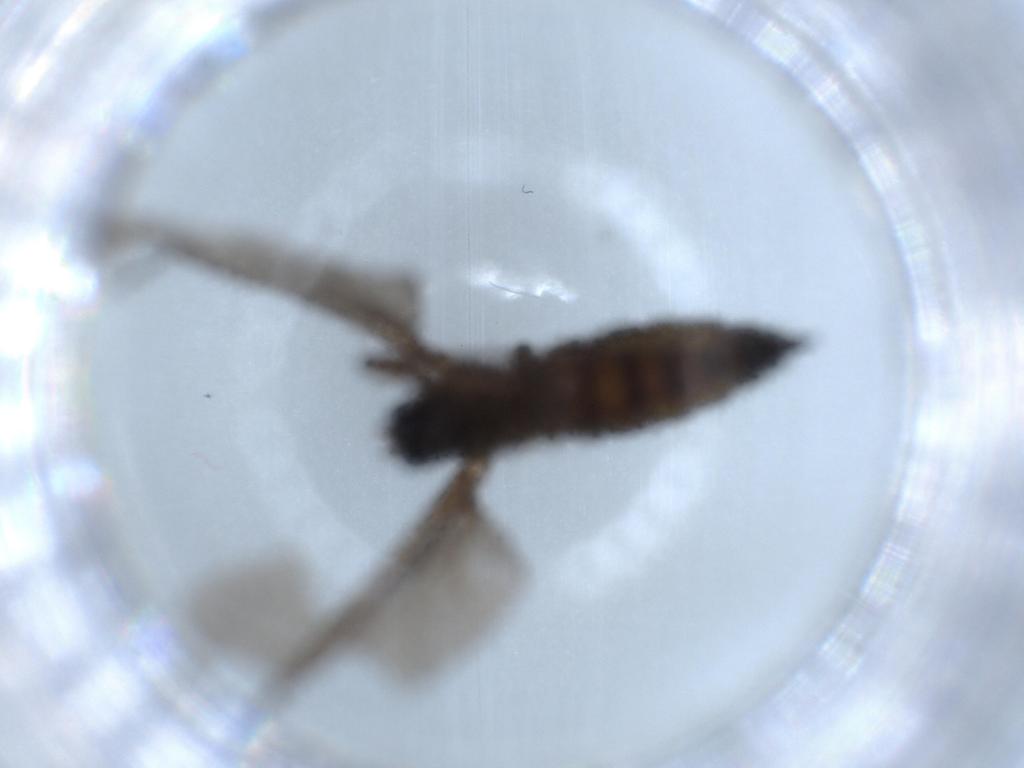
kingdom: Animalia
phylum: Arthropoda
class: Insecta
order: Diptera
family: Sciaridae
